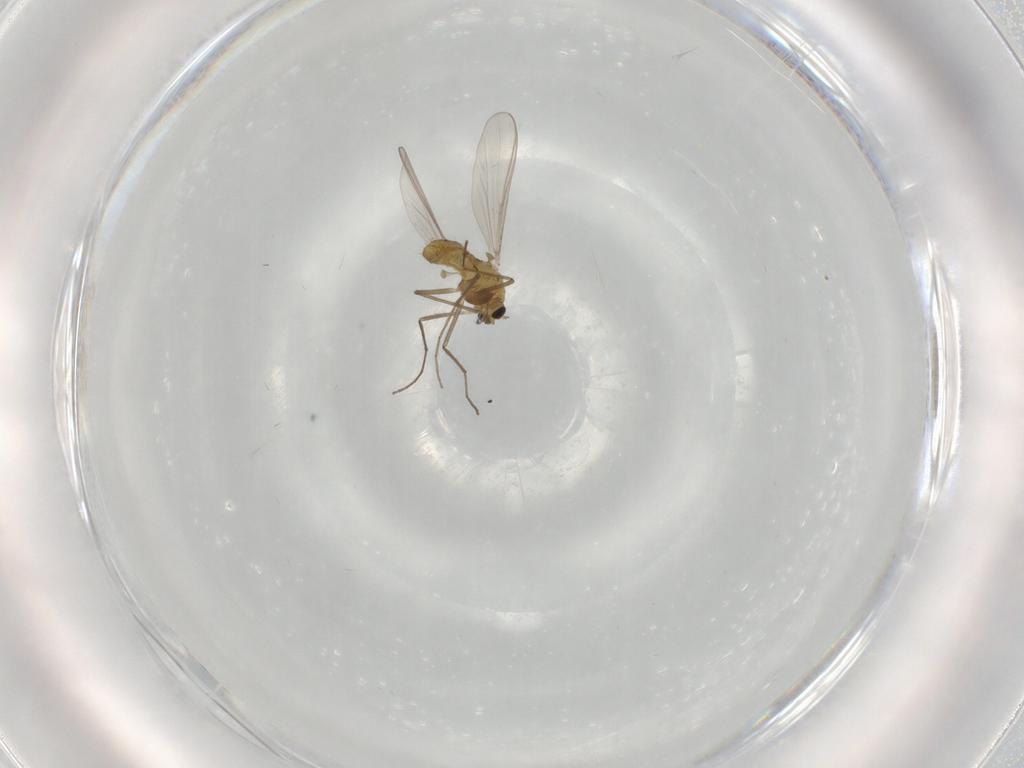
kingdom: Animalia
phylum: Arthropoda
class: Insecta
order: Diptera
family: Chironomidae
